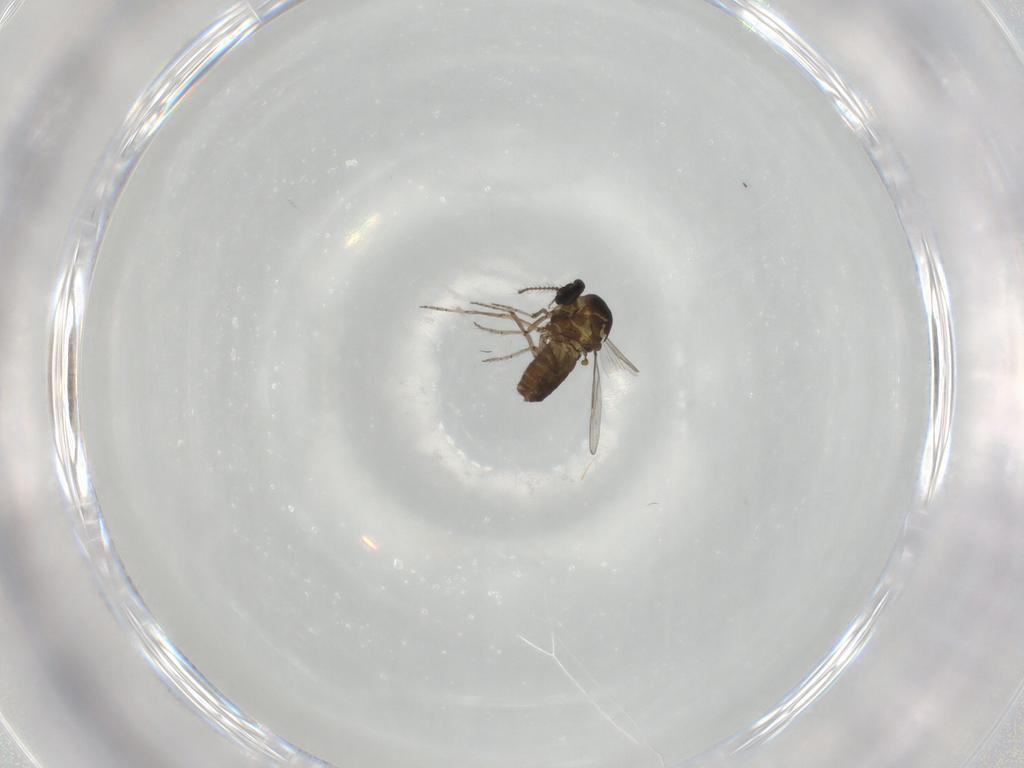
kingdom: Animalia
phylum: Arthropoda
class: Insecta
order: Diptera
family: Ceratopogonidae
